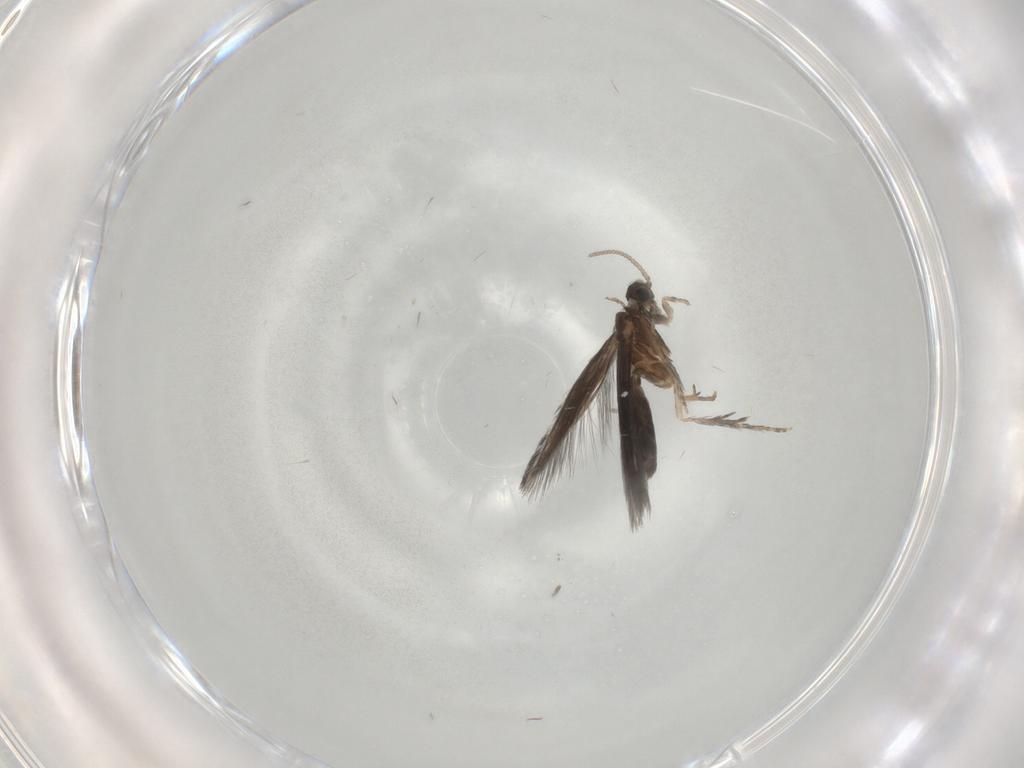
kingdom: Animalia
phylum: Arthropoda
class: Insecta
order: Trichoptera
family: Hydroptilidae
